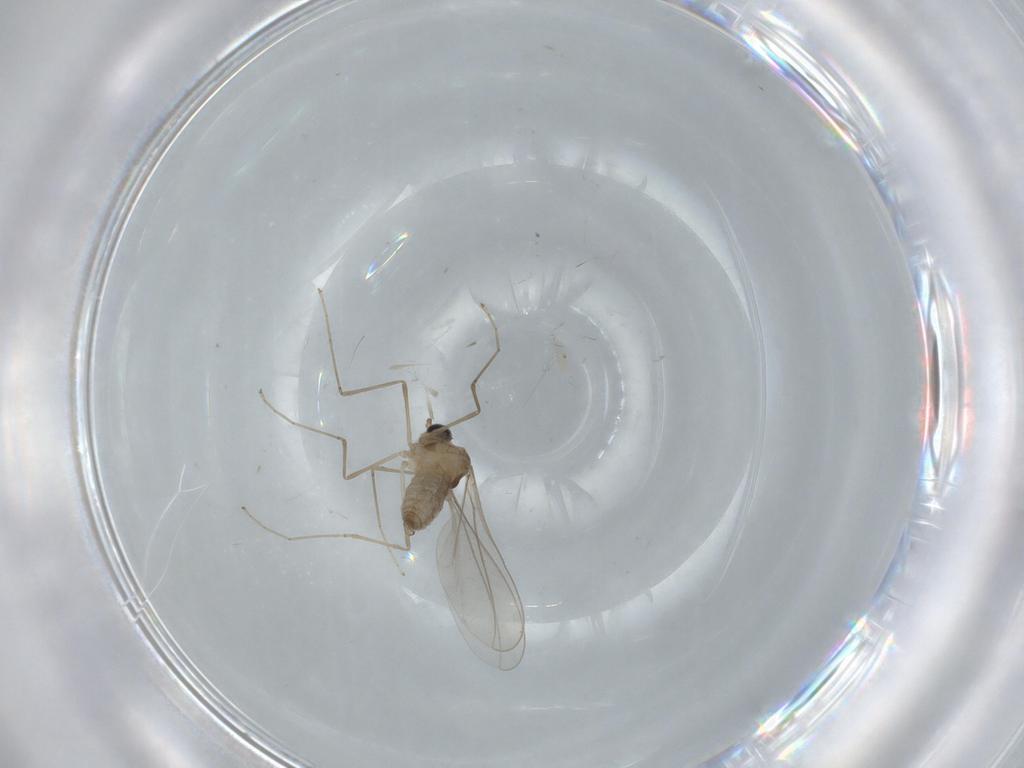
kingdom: Animalia
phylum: Arthropoda
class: Insecta
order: Diptera
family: Cecidomyiidae
